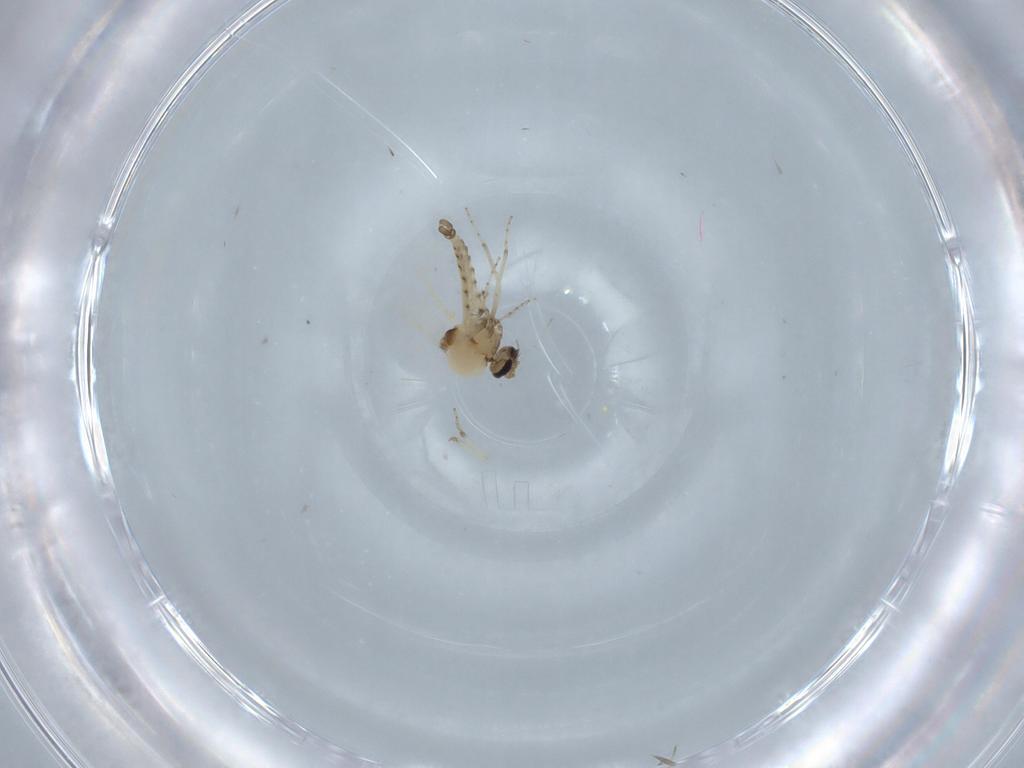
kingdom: Animalia
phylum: Arthropoda
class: Insecta
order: Diptera
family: Ceratopogonidae
